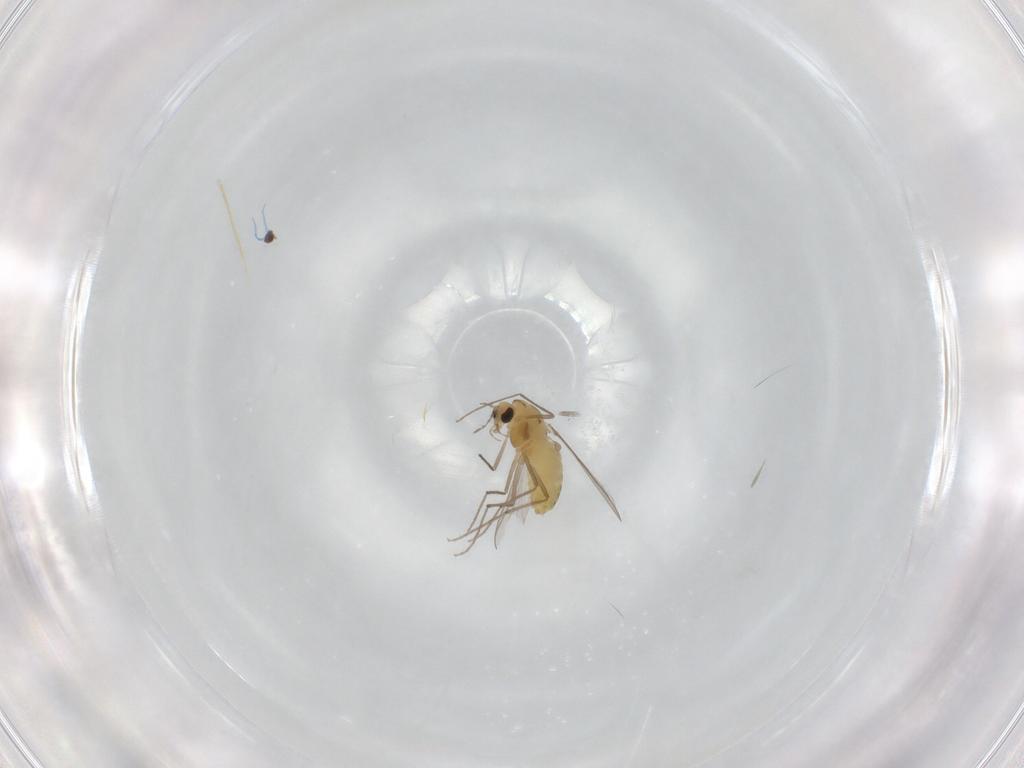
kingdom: Animalia
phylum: Arthropoda
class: Insecta
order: Diptera
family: Chironomidae
